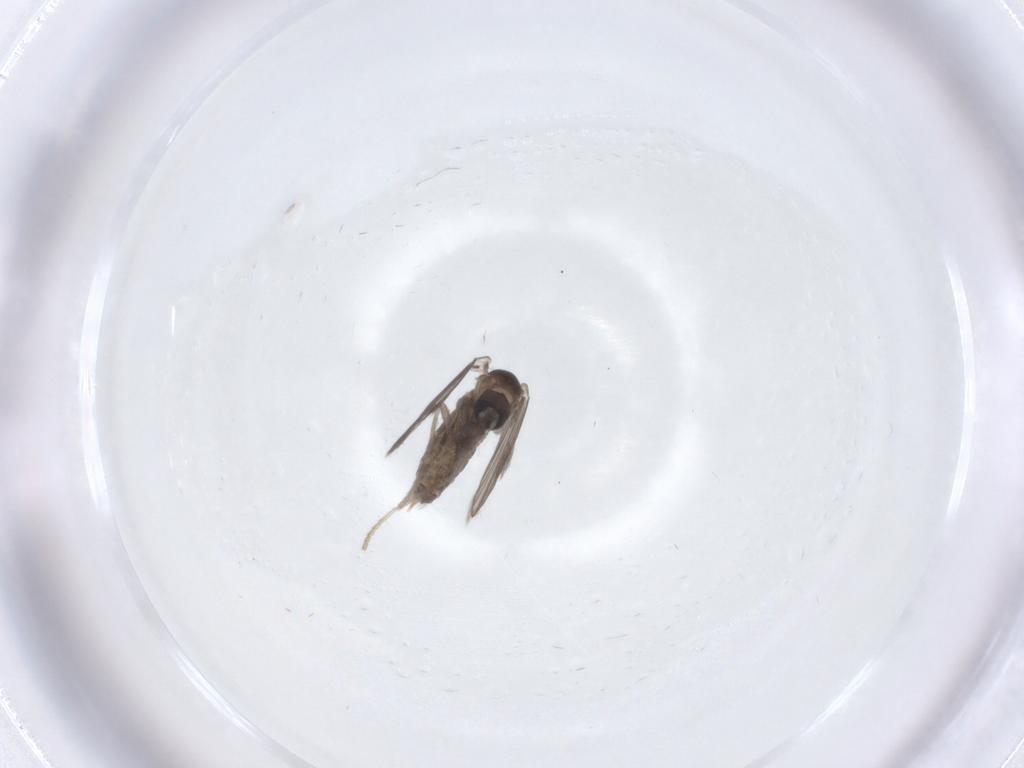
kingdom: Animalia
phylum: Arthropoda
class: Insecta
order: Diptera
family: Psychodidae
